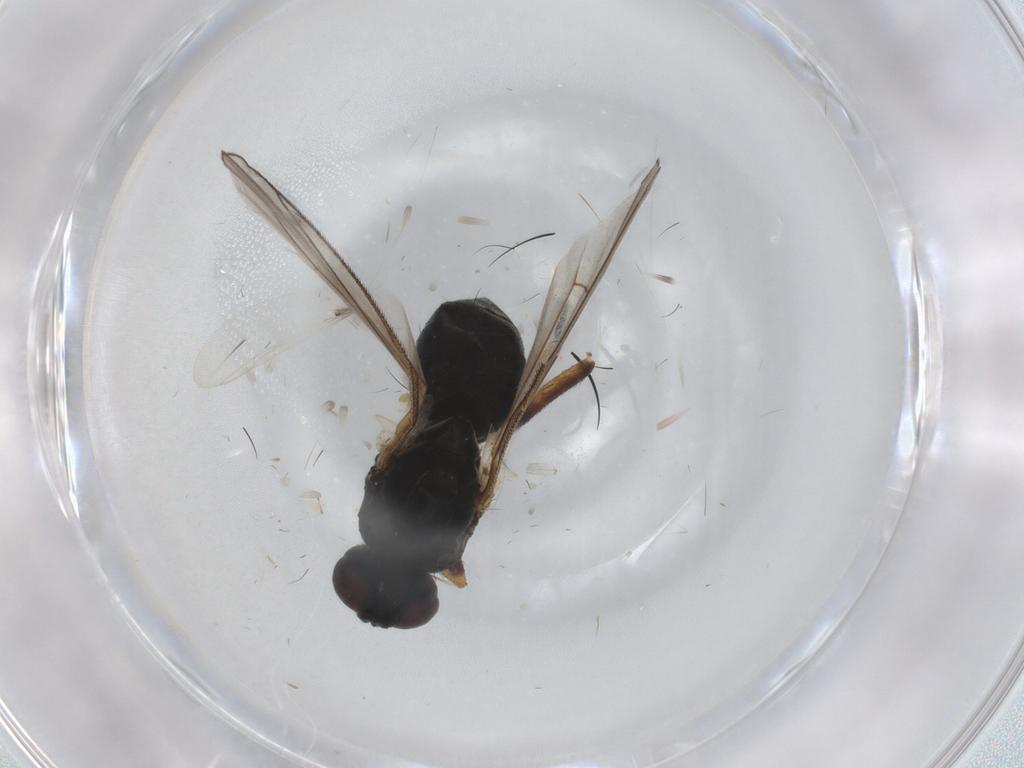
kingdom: Animalia
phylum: Arthropoda
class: Insecta
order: Diptera
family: Muscidae
